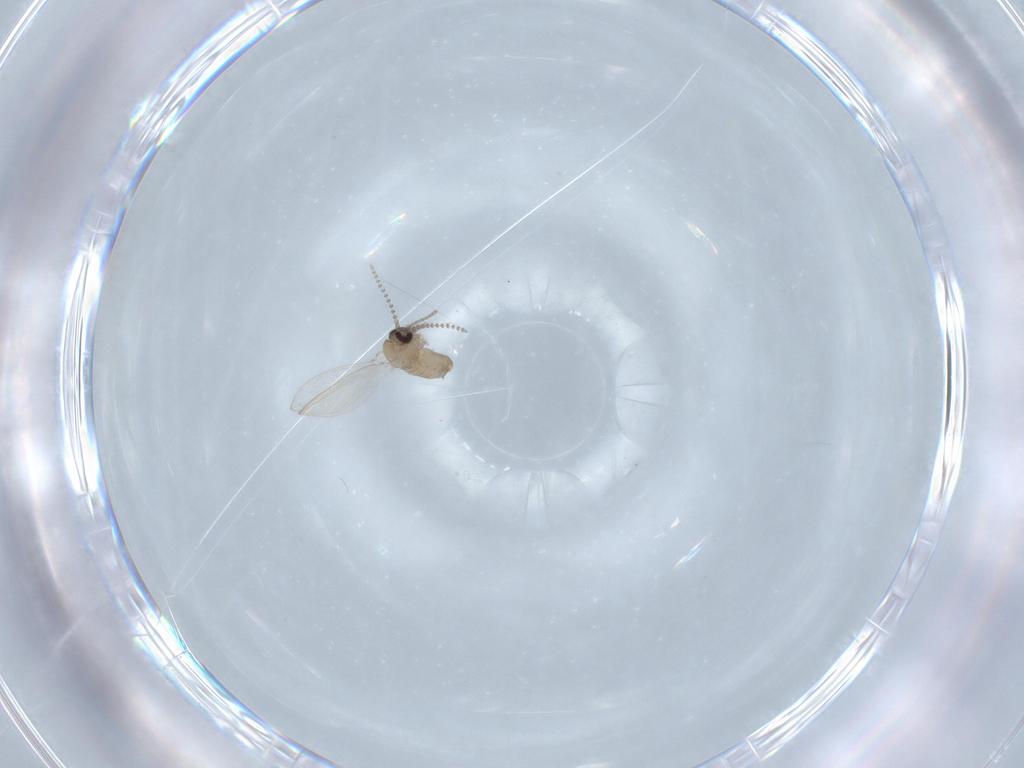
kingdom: Animalia
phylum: Arthropoda
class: Insecta
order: Diptera
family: Psychodidae
